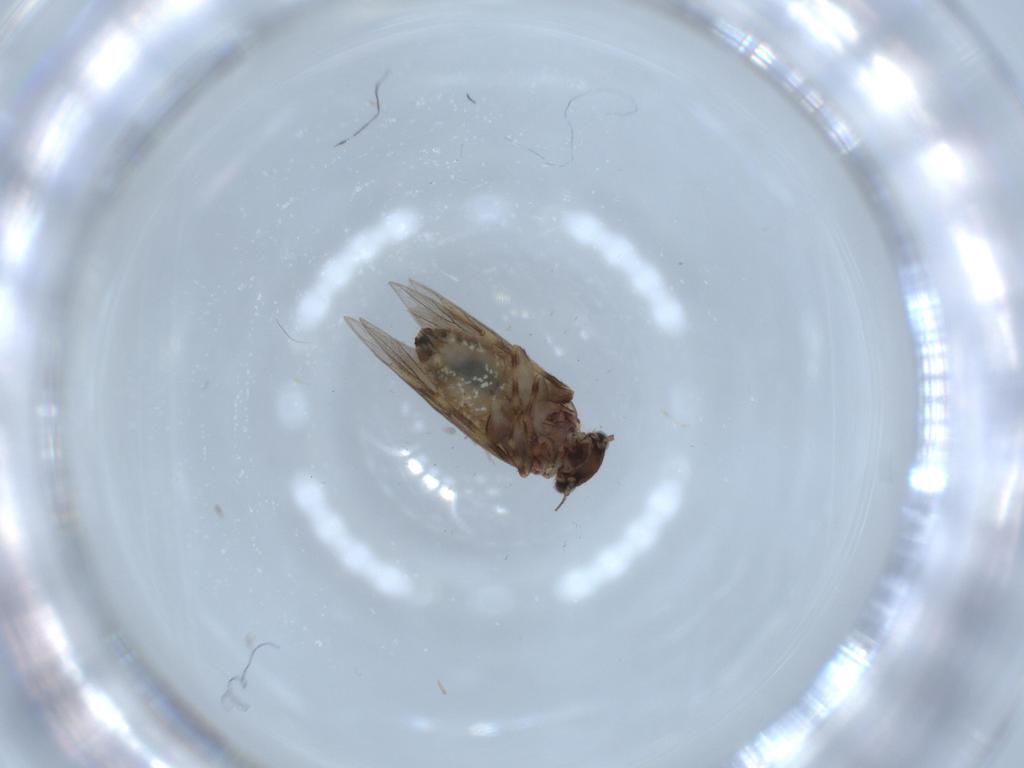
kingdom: Animalia
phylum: Arthropoda
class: Insecta
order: Psocodea
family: Lepidopsocidae
